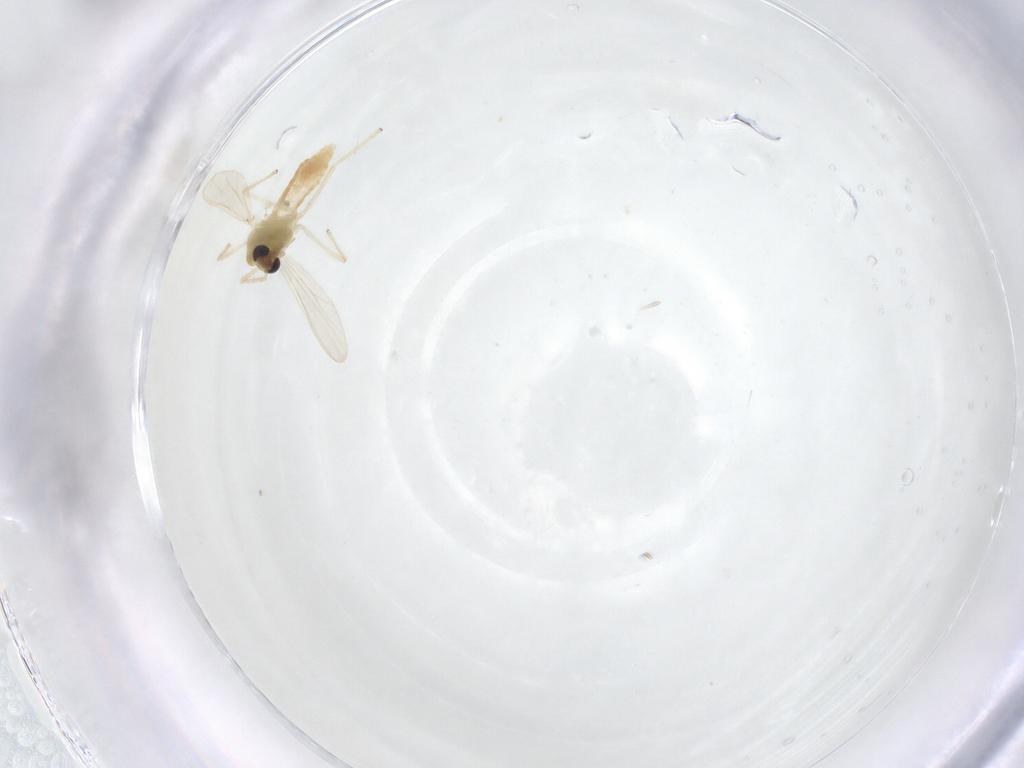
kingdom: Animalia
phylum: Arthropoda
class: Insecta
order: Diptera
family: Chironomidae
